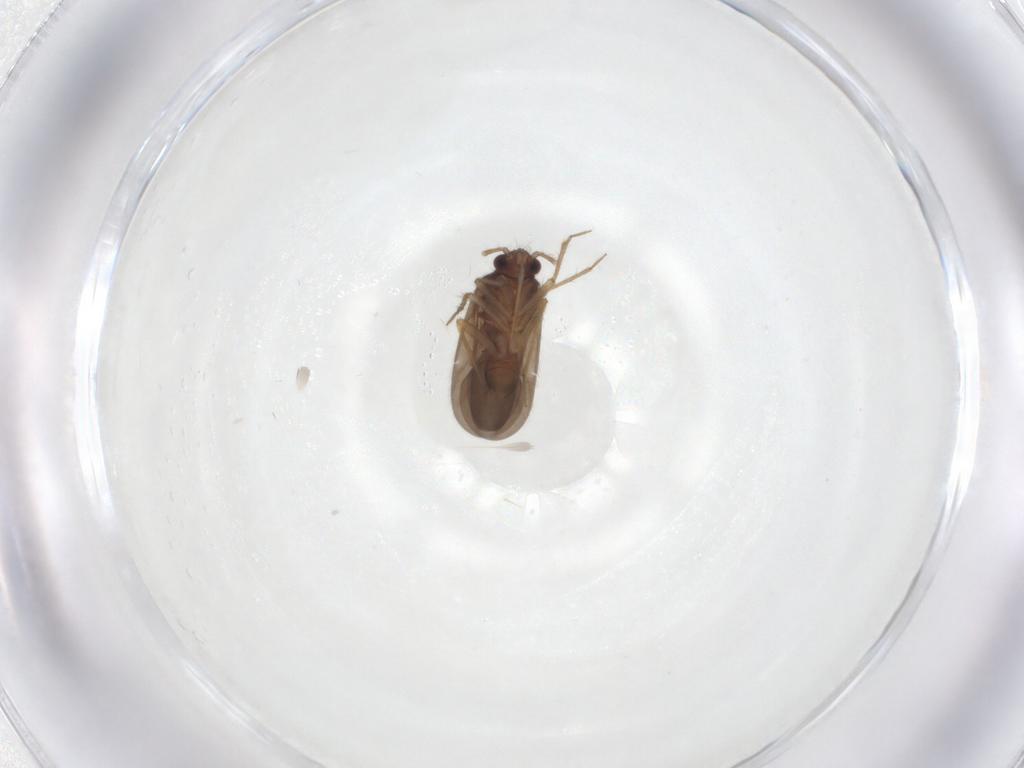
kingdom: Animalia
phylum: Arthropoda
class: Insecta
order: Hemiptera
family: Ceratocombidae
